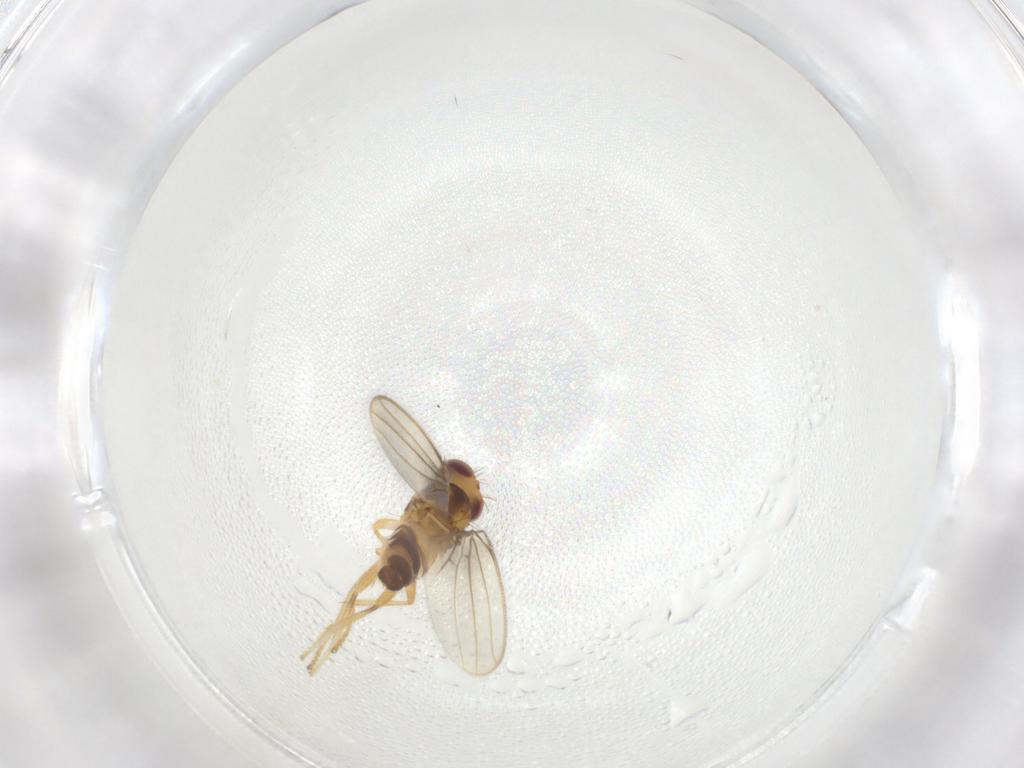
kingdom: Animalia
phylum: Arthropoda
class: Insecta
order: Diptera
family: Periscelididae
